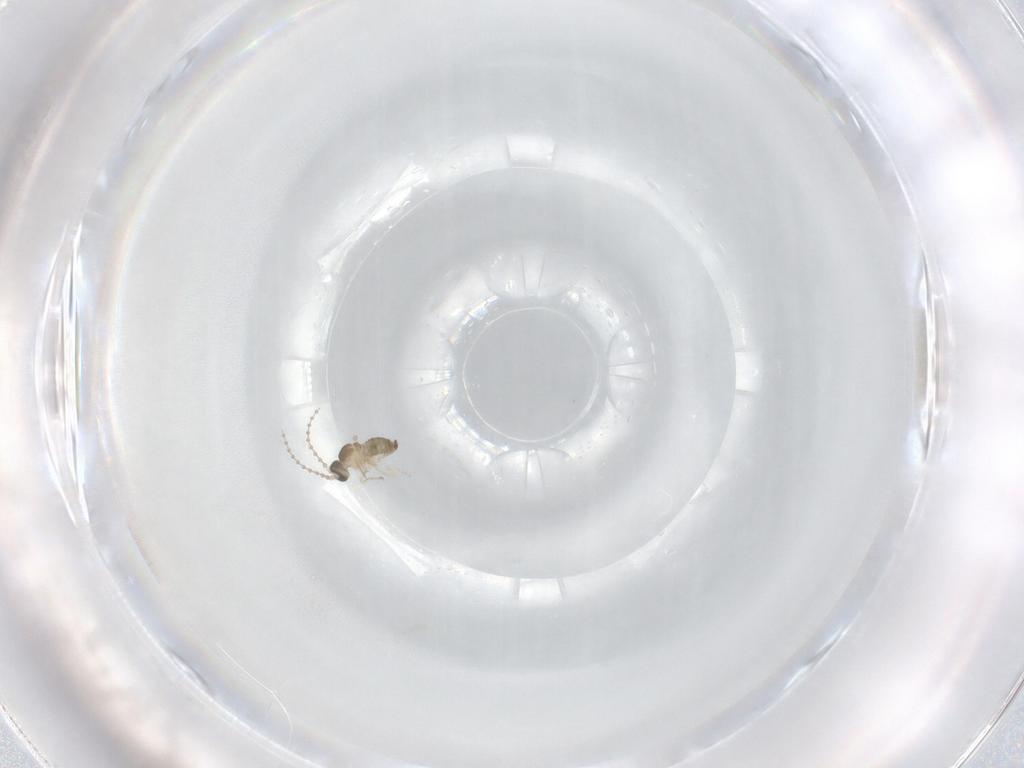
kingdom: Animalia
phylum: Arthropoda
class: Insecta
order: Diptera
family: Cecidomyiidae
